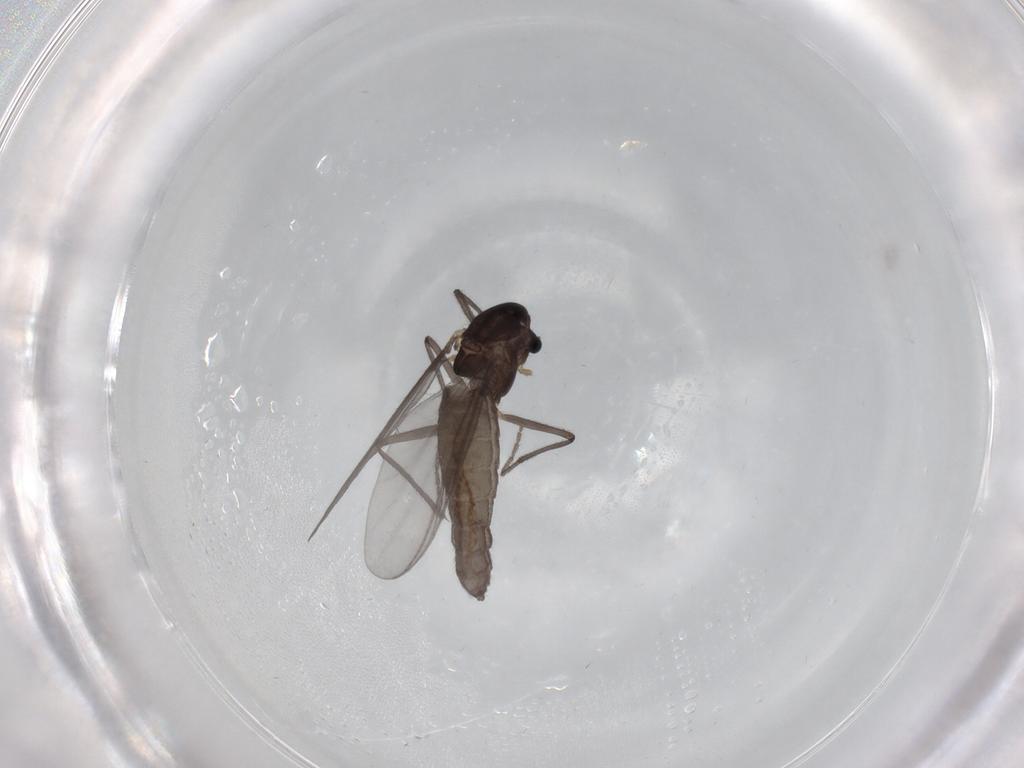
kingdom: Animalia
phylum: Arthropoda
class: Insecta
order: Diptera
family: Chironomidae
